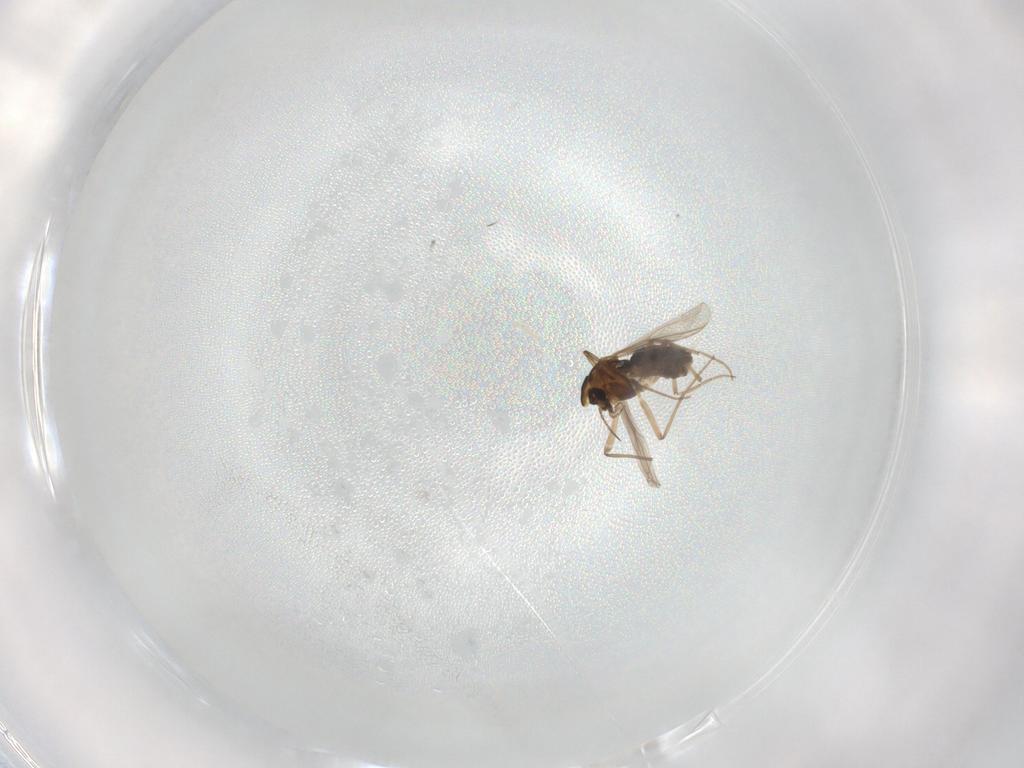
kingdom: Animalia
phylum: Arthropoda
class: Insecta
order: Diptera
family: Chironomidae
